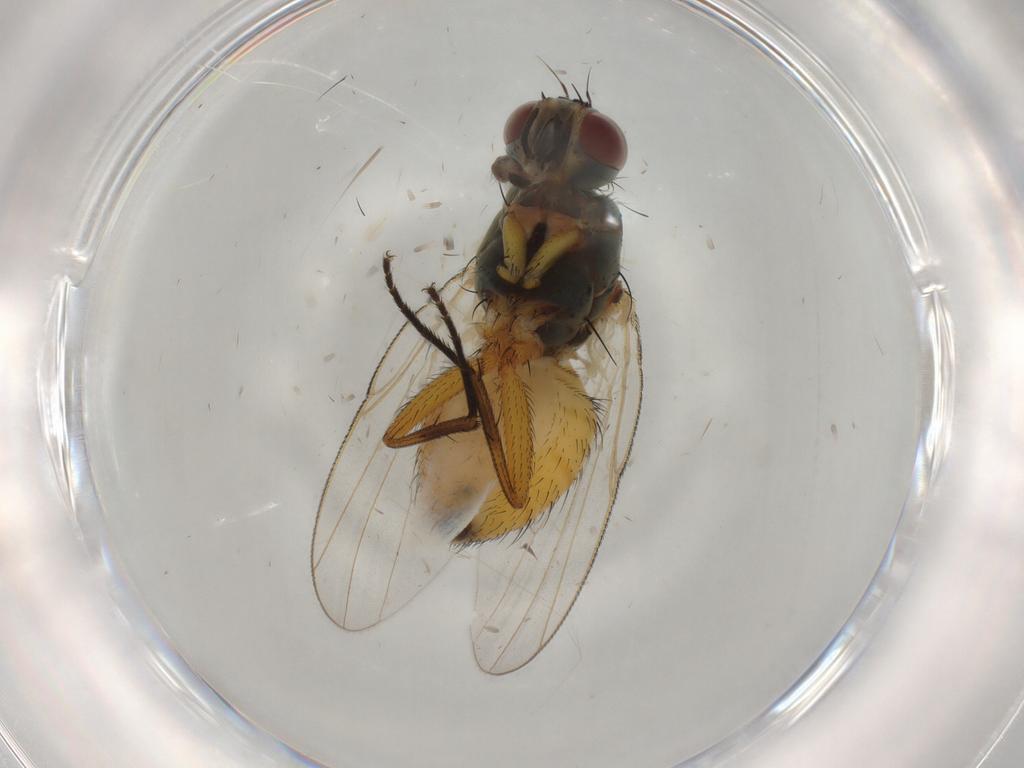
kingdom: Animalia
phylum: Arthropoda
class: Insecta
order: Diptera
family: Muscidae
